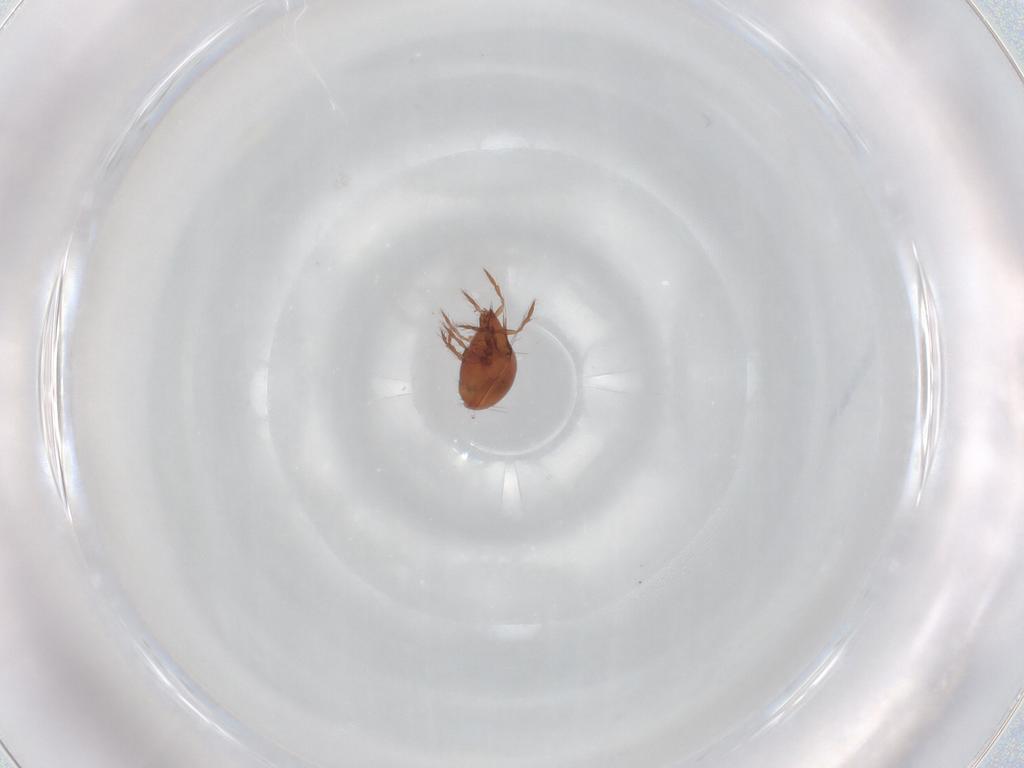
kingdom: Animalia
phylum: Arthropoda
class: Arachnida
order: Sarcoptiformes
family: Ceratoppiidae
